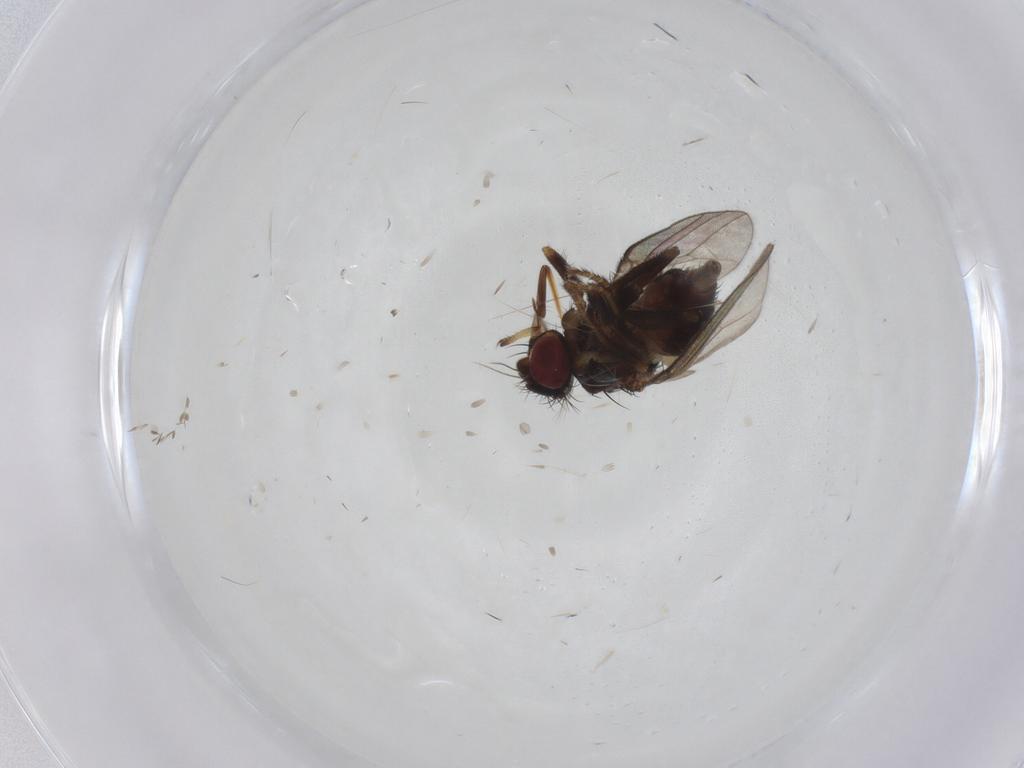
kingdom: Animalia
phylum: Arthropoda
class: Insecta
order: Diptera
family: Milichiidae
